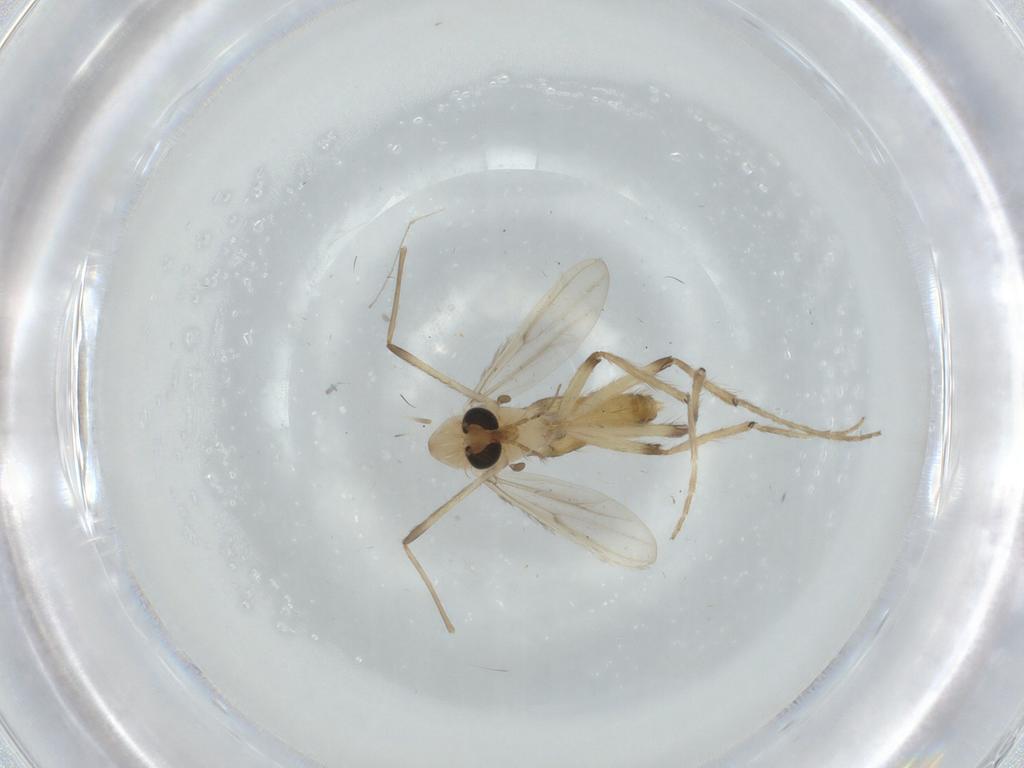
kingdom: Animalia
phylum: Arthropoda
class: Insecta
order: Diptera
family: Chironomidae
